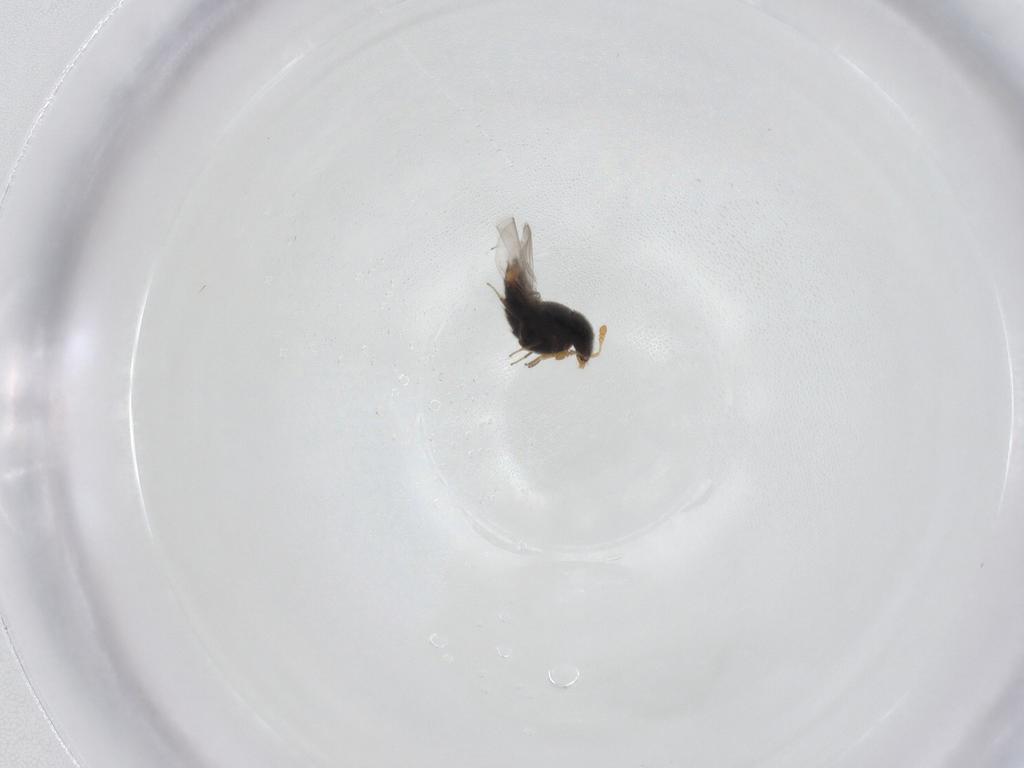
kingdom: Animalia
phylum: Arthropoda
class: Insecta
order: Coleoptera
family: Staphylinidae
